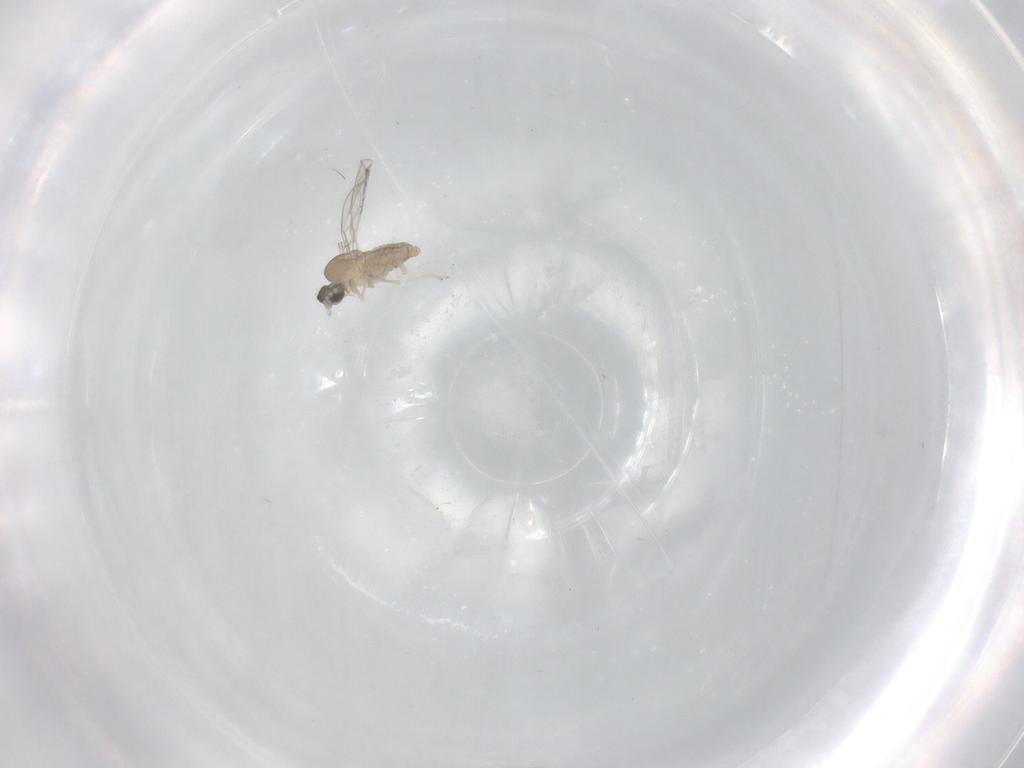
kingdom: Animalia
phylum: Arthropoda
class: Insecta
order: Diptera
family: Cecidomyiidae
